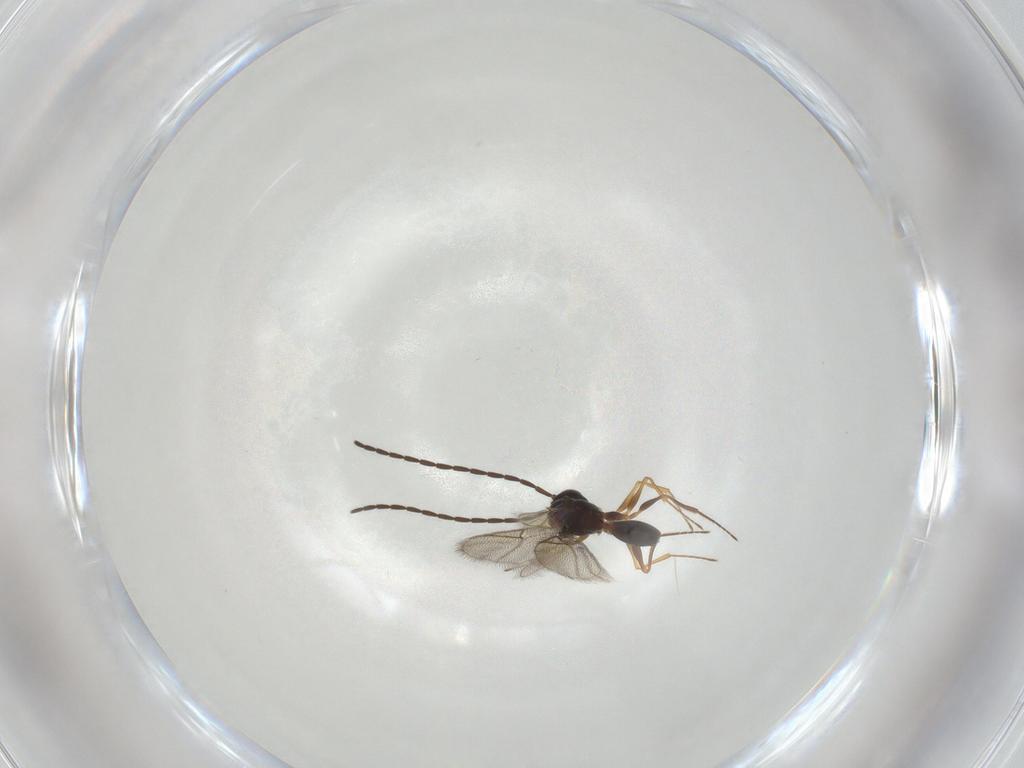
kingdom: Animalia
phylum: Arthropoda
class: Insecta
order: Hymenoptera
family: Figitidae
